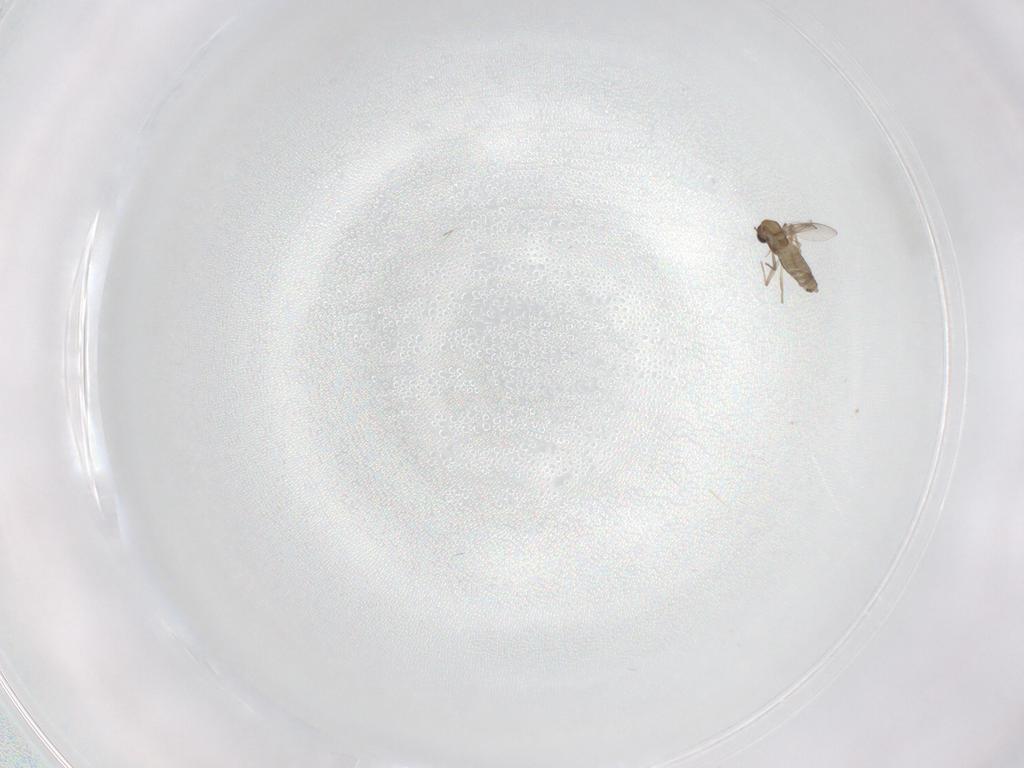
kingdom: Animalia
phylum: Arthropoda
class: Insecta
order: Diptera
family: Chironomidae
